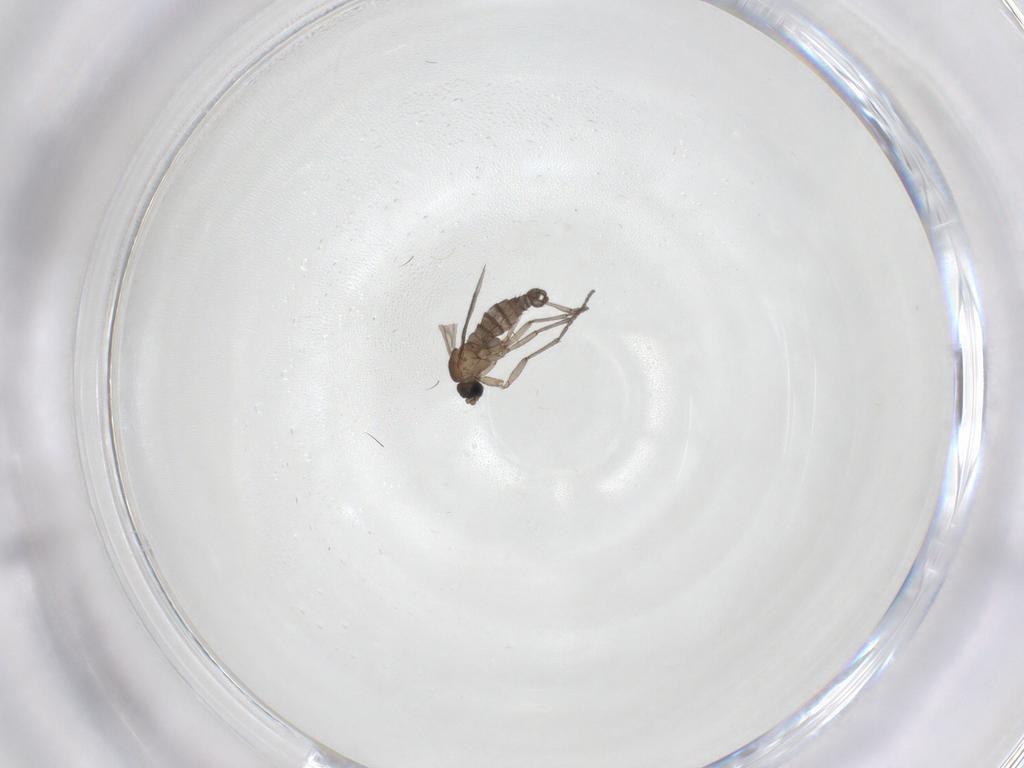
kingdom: Animalia
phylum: Arthropoda
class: Insecta
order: Diptera
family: Sciaridae
